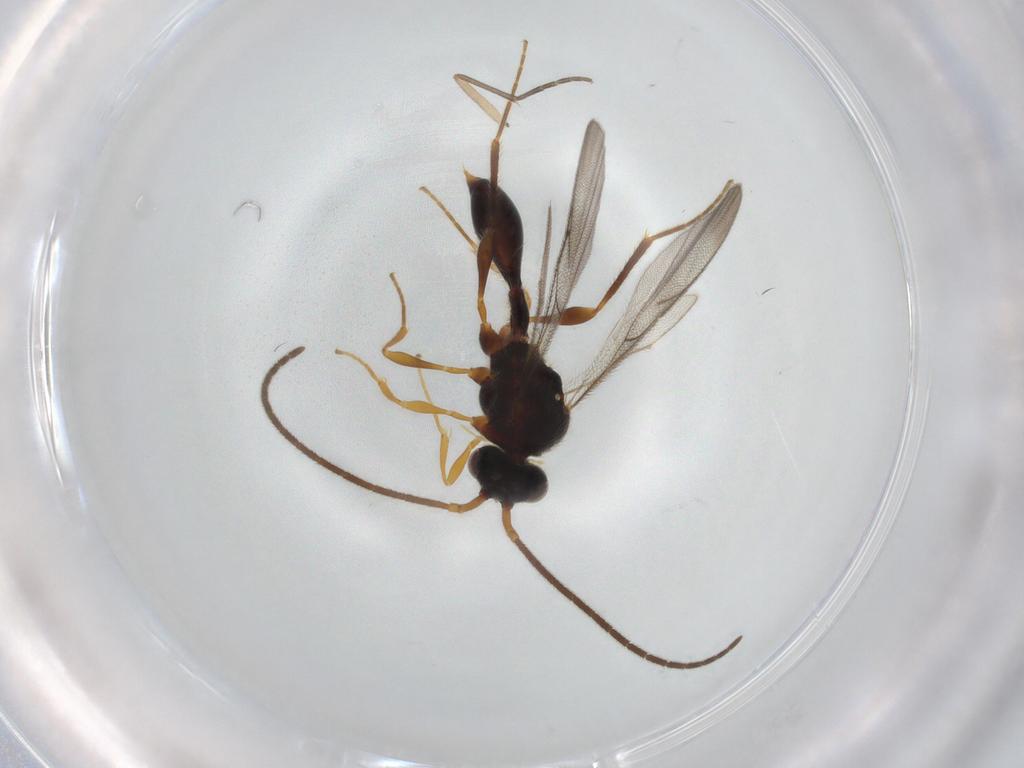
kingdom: Animalia
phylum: Arthropoda
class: Insecta
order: Hymenoptera
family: Diapriidae
